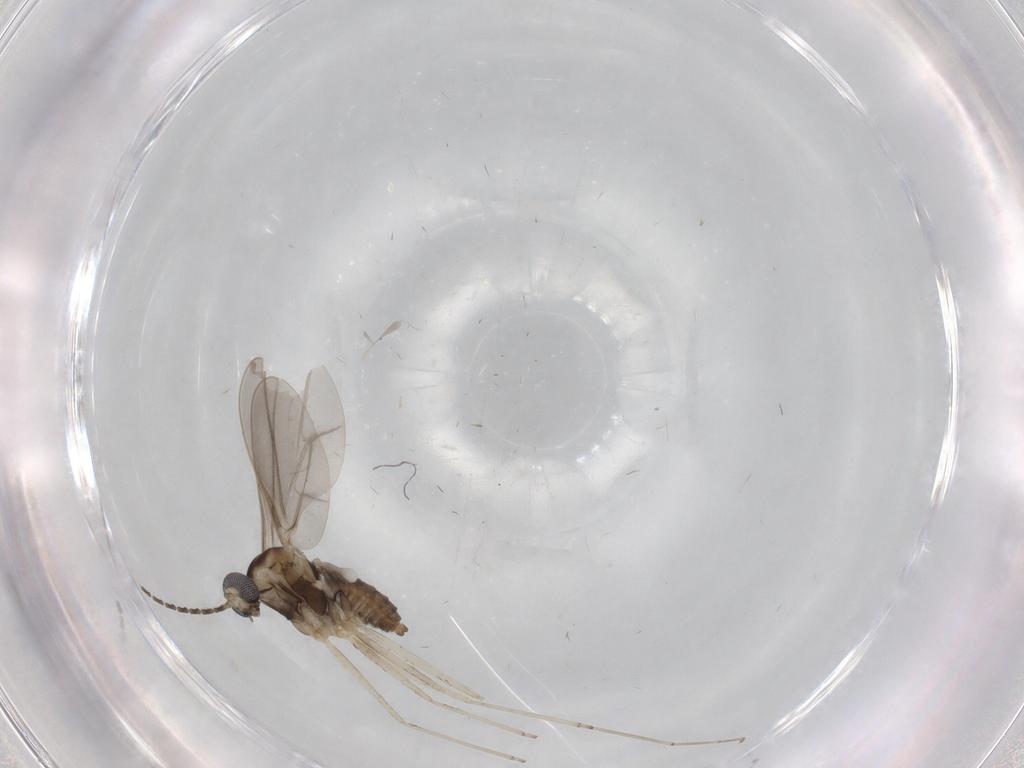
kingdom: Animalia
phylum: Arthropoda
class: Insecta
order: Diptera
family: Cecidomyiidae
